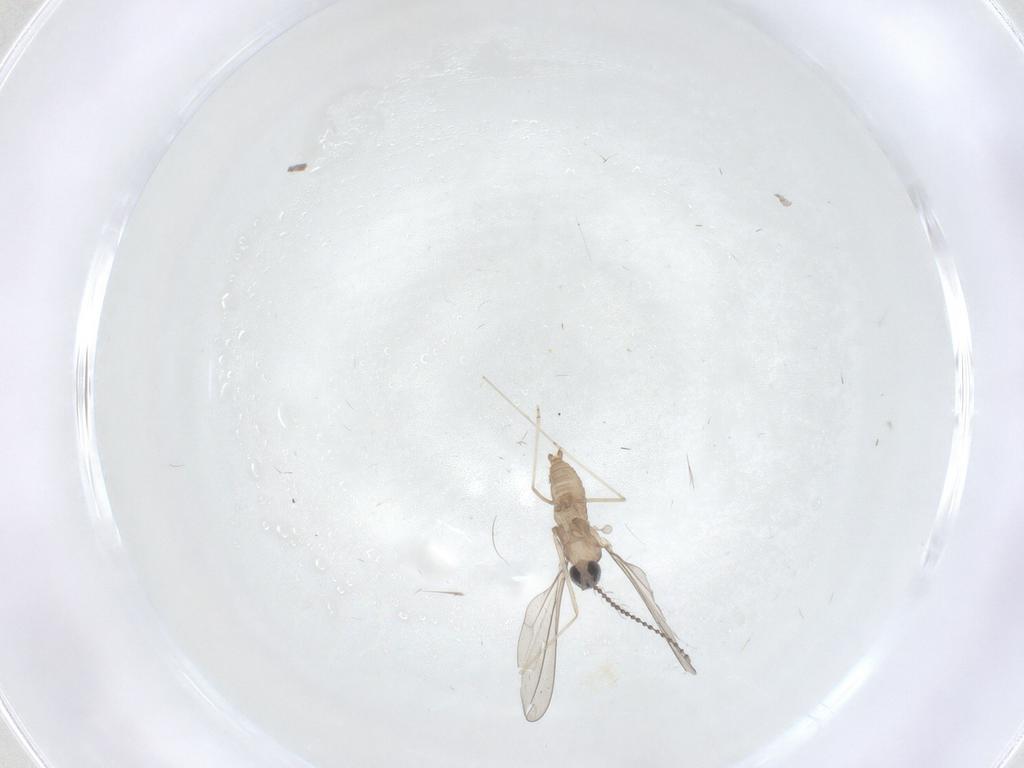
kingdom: Animalia
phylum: Arthropoda
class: Insecta
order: Diptera
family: Cecidomyiidae
